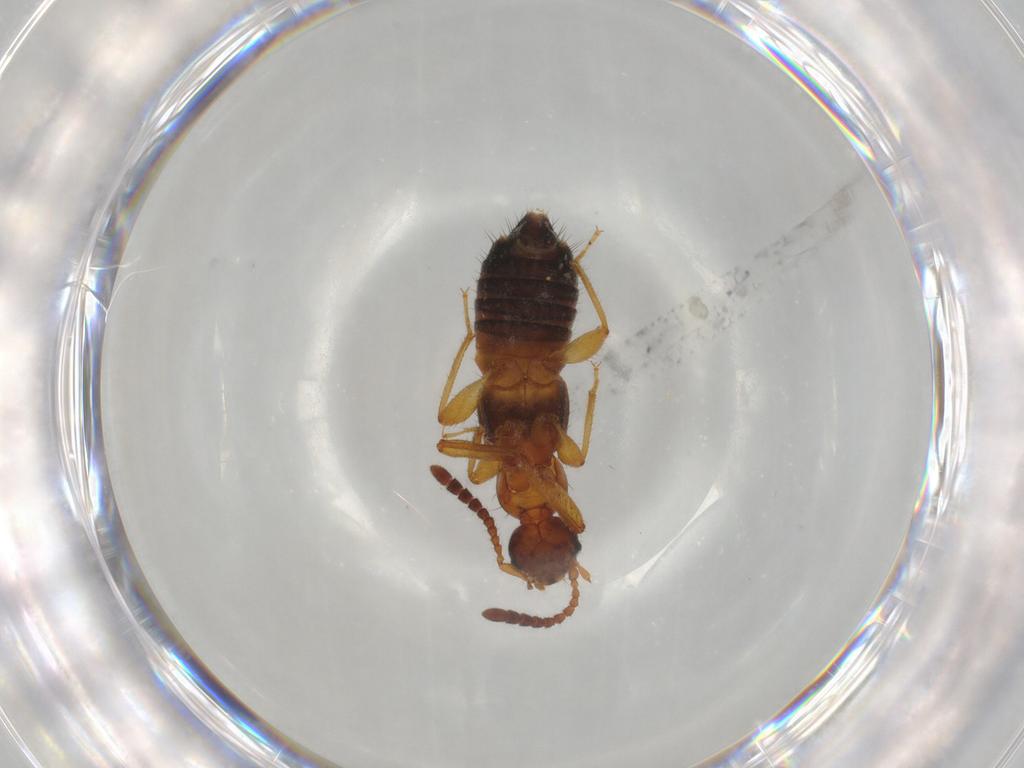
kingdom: Animalia
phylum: Arthropoda
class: Insecta
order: Coleoptera
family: Staphylinidae
